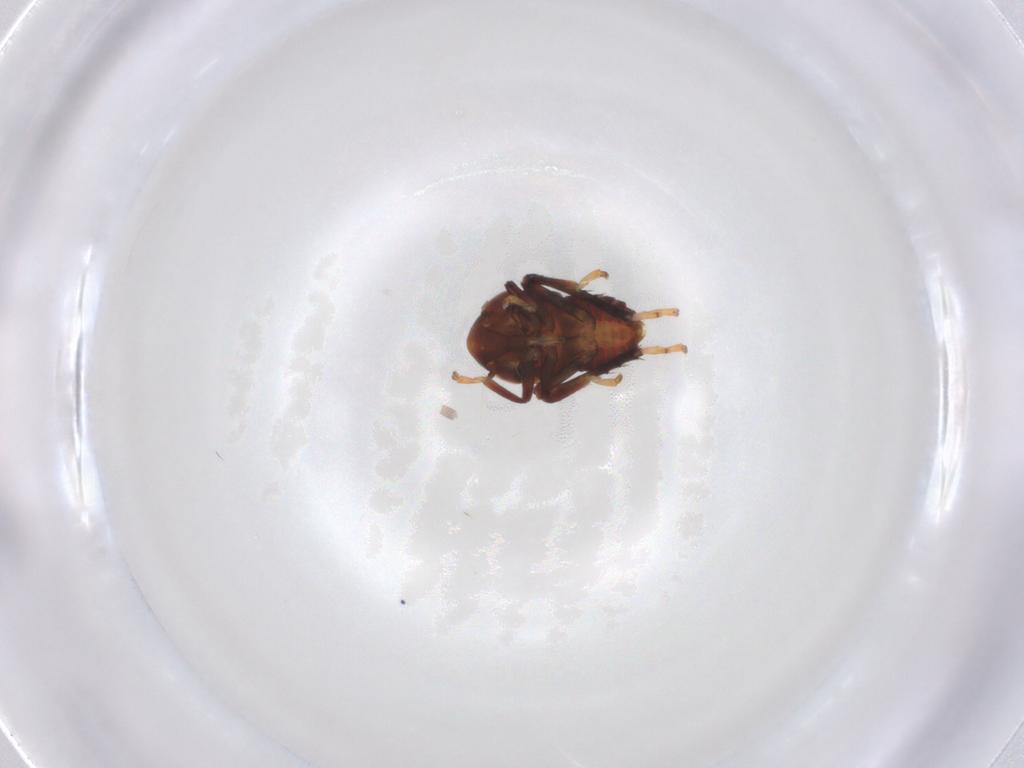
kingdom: Animalia
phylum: Arthropoda
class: Insecta
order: Hemiptera
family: Cicadellidae
